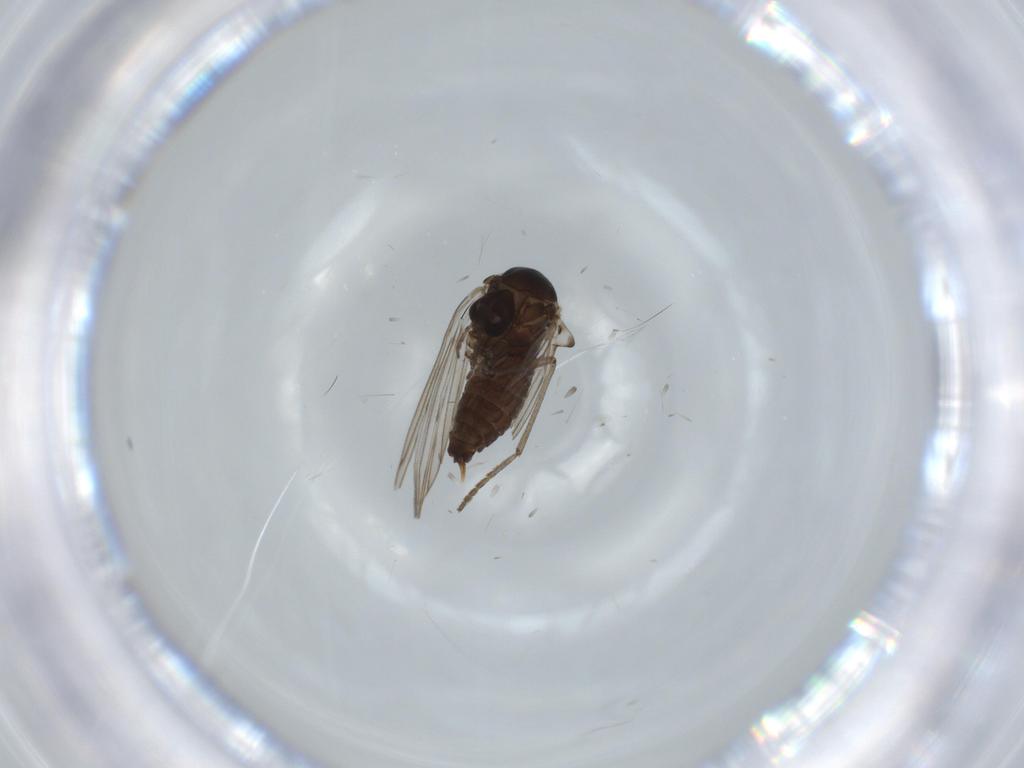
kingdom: Animalia
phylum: Arthropoda
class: Insecta
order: Diptera
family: Psychodidae
